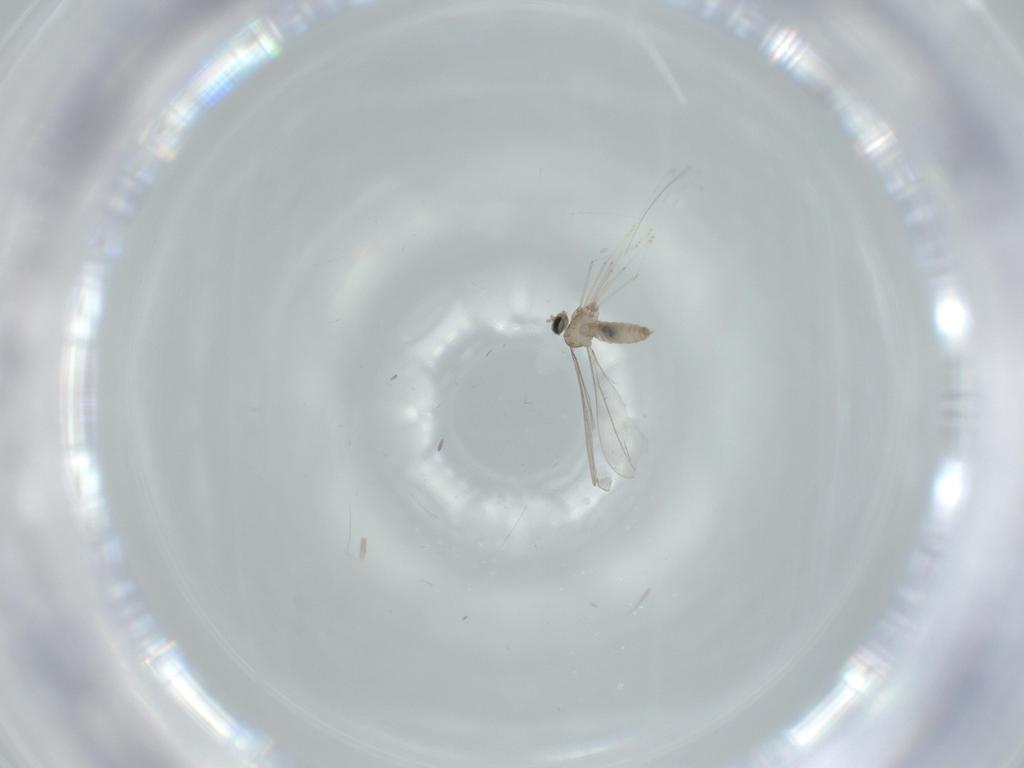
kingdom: Animalia
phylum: Arthropoda
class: Insecta
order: Diptera
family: Cecidomyiidae
